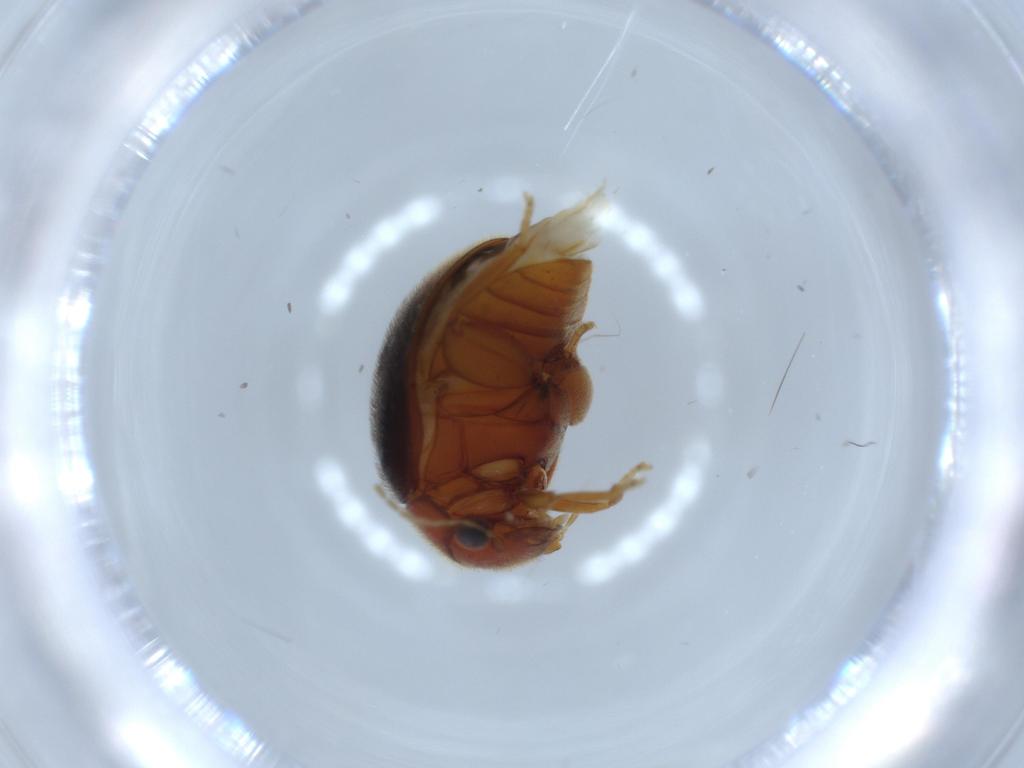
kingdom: Animalia
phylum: Arthropoda
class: Insecta
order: Coleoptera
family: Scirtidae
